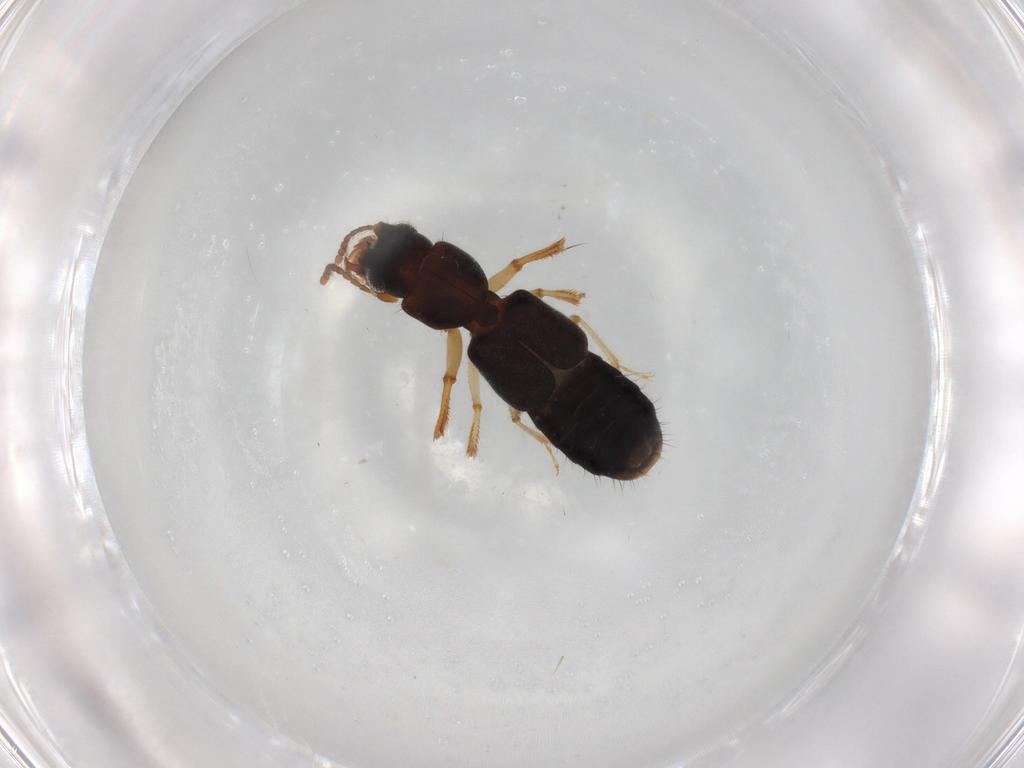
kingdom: Animalia
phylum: Arthropoda
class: Insecta
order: Coleoptera
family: Staphylinidae
